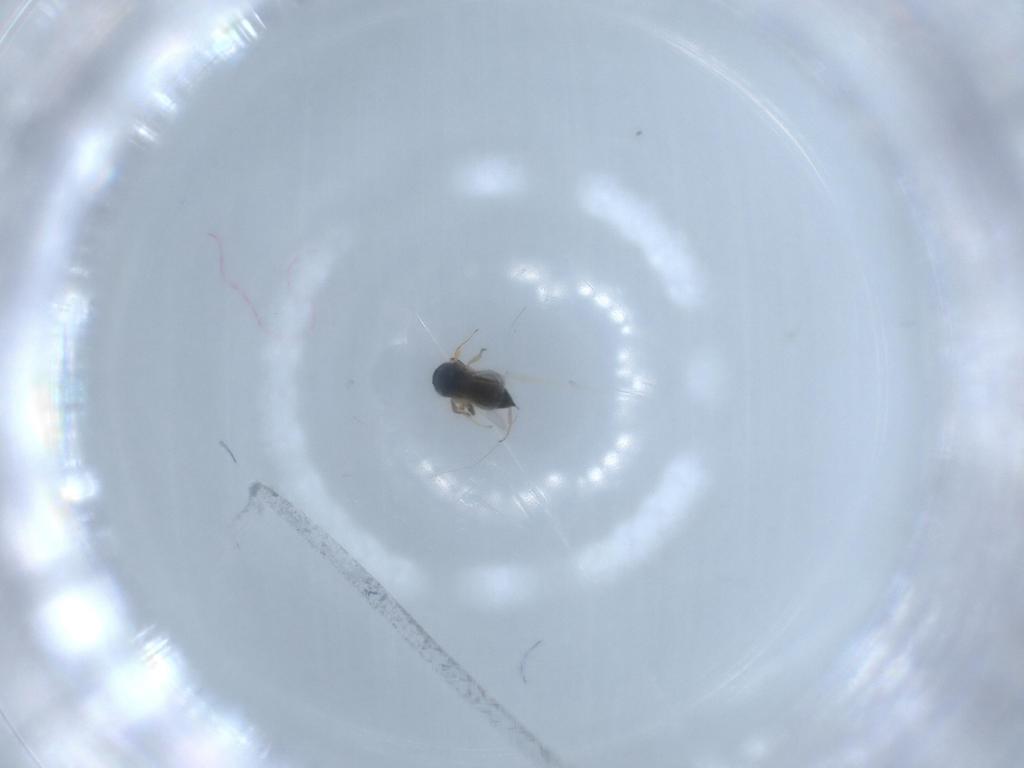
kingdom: Animalia
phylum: Arthropoda
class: Insecta
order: Hymenoptera
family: Scelionidae
